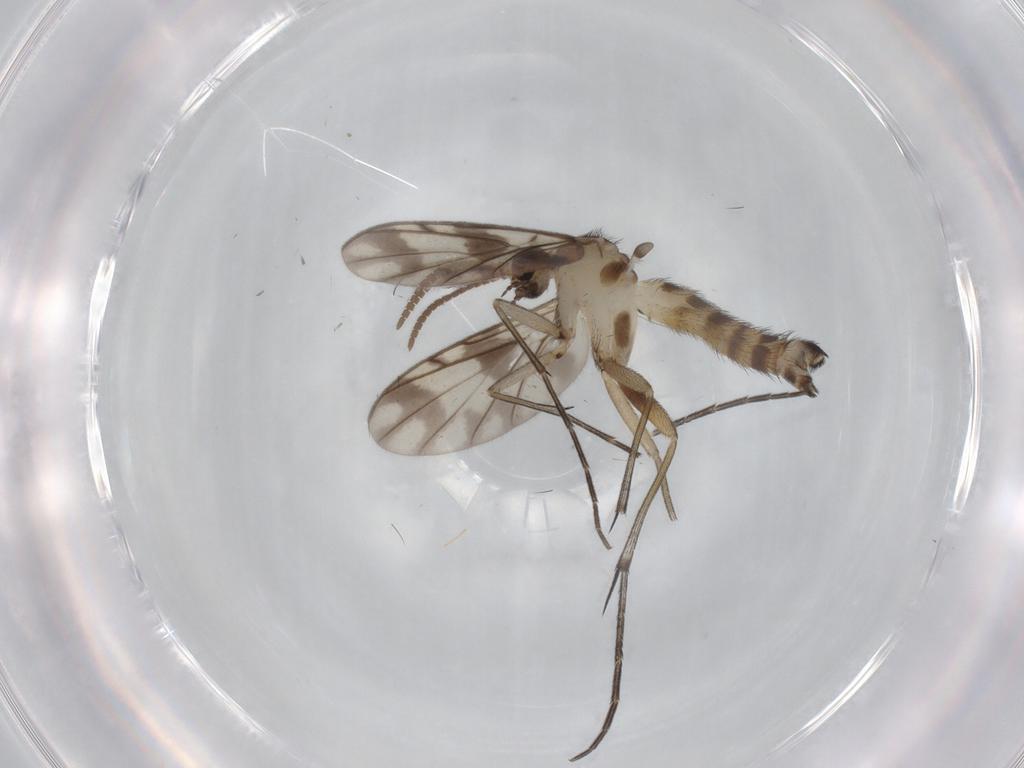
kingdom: Animalia
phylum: Arthropoda
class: Insecta
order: Diptera
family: Keroplatidae
